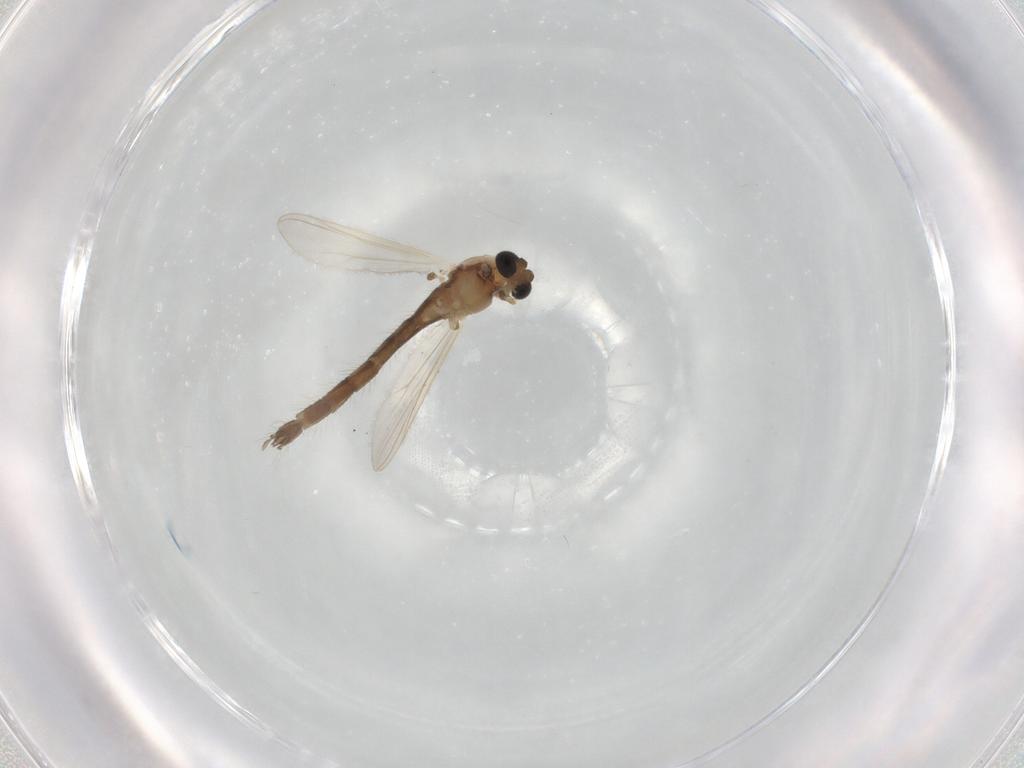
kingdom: Animalia
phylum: Arthropoda
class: Insecta
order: Diptera
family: Chironomidae
